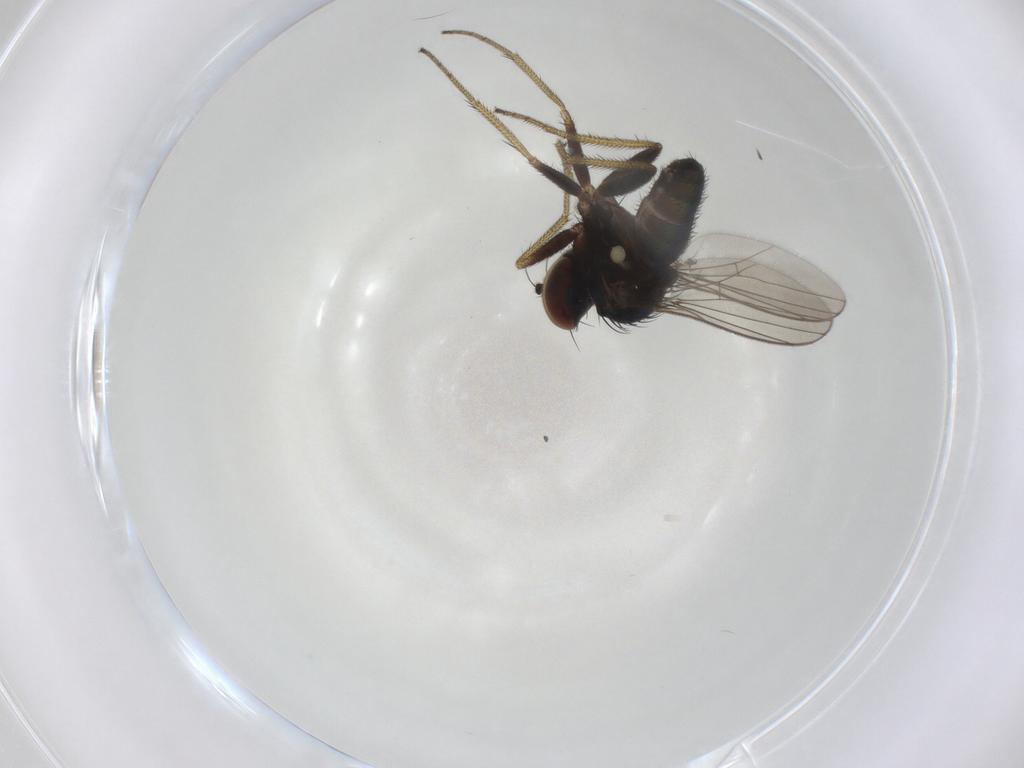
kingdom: Animalia
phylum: Arthropoda
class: Insecta
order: Diptera
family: Dolichopodidae
